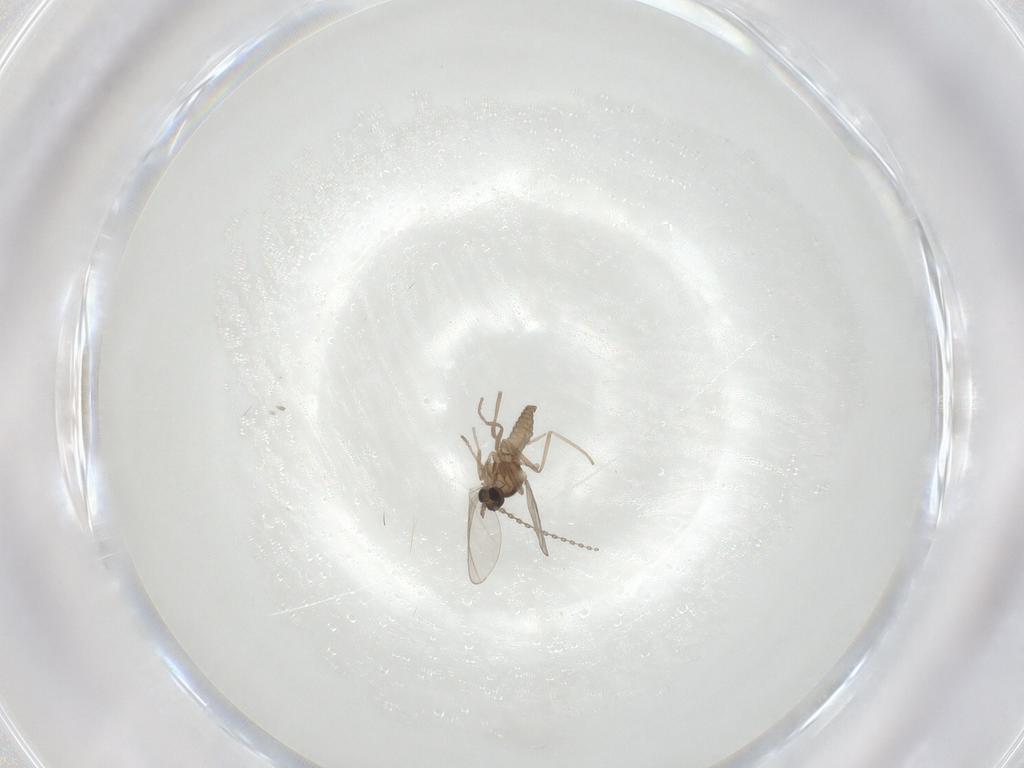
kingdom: Animalia
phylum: Arthropoda
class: Insecta
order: Diptera
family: Cecidomyiidae
